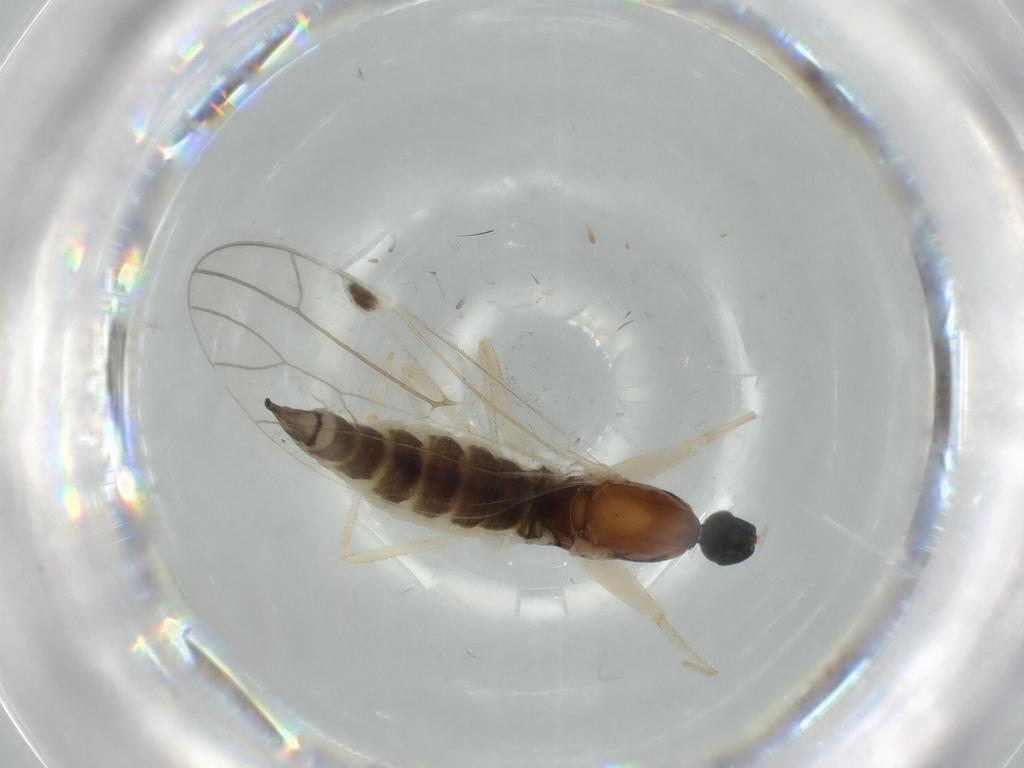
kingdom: Animalia
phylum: Arthropoda
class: Insecta
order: Diptera
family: Empididae
